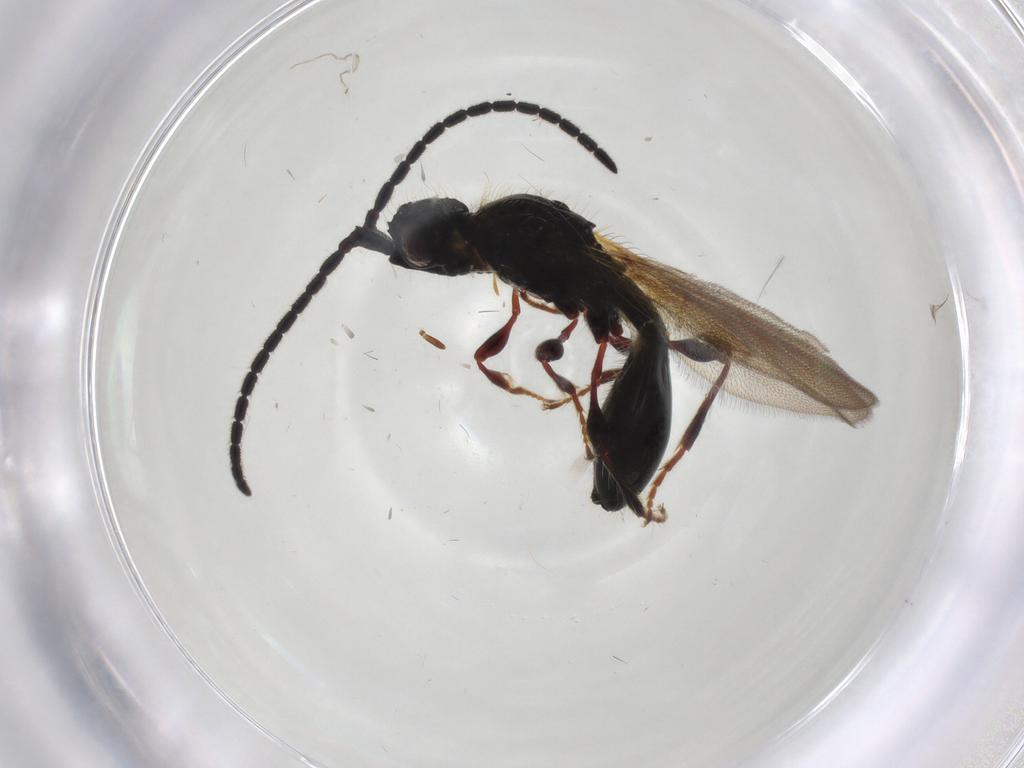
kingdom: Animalia
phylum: Arthropoda
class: Insecta
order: Hymenoptera
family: Diapriidae
